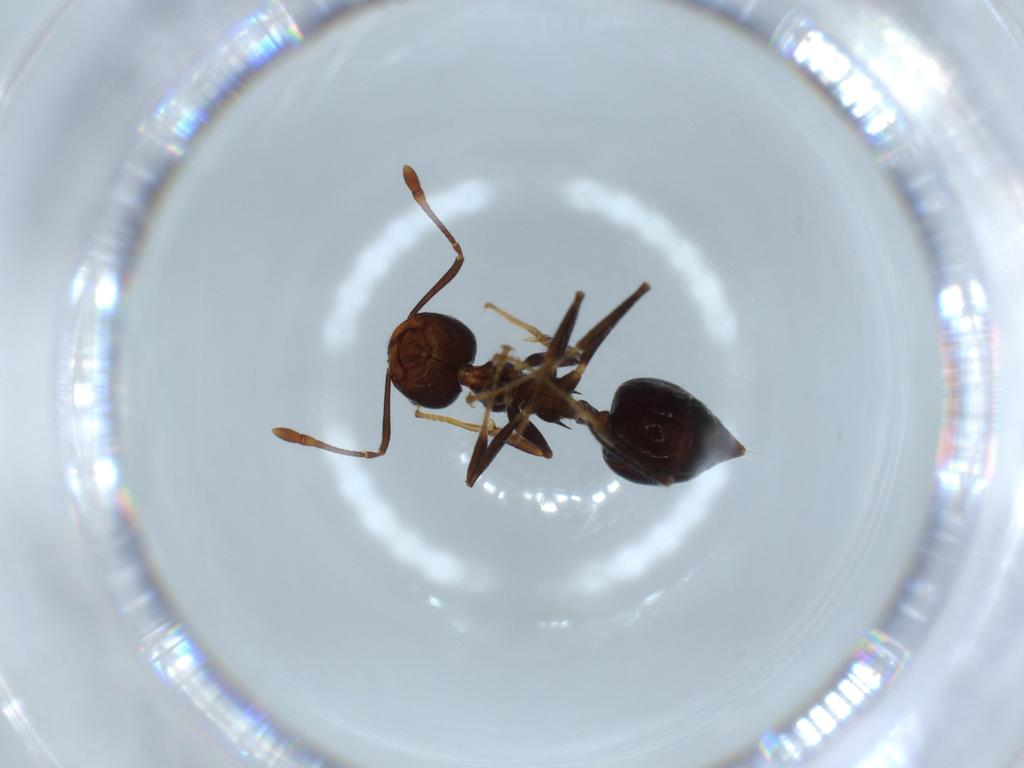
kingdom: Animalia
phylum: Arthropoda
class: Insecta
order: Hymenoptera
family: Formicidae
